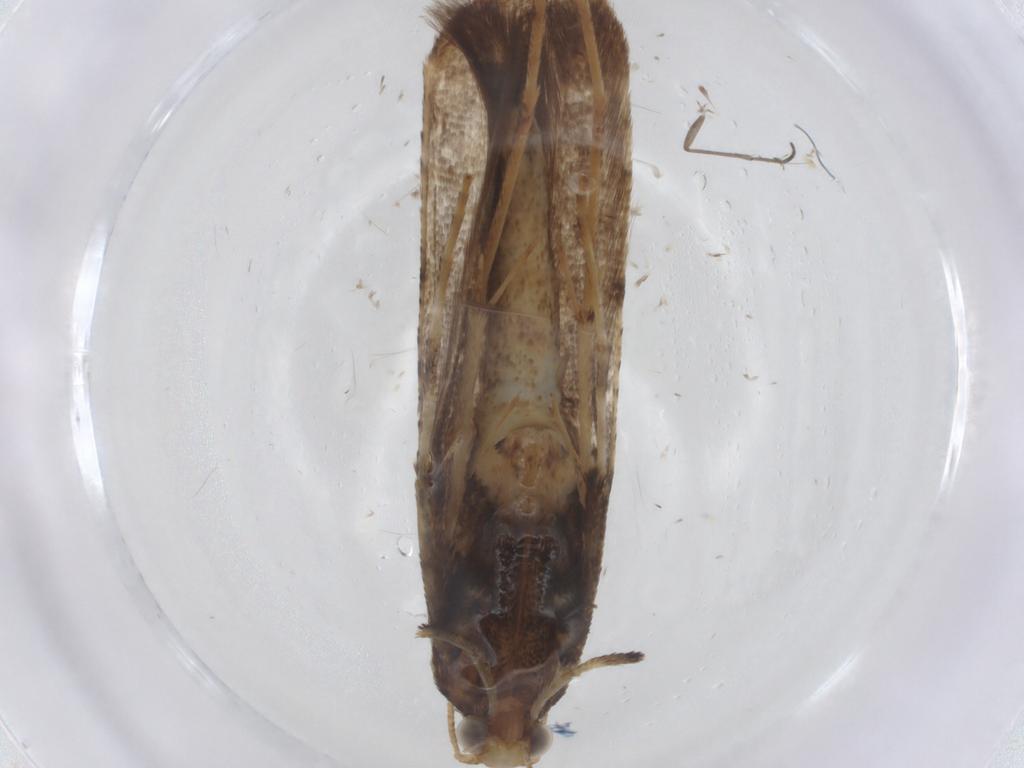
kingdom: Animalia
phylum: Arthropoda
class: Insecta
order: Lepidoptera
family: Gracillariidae
